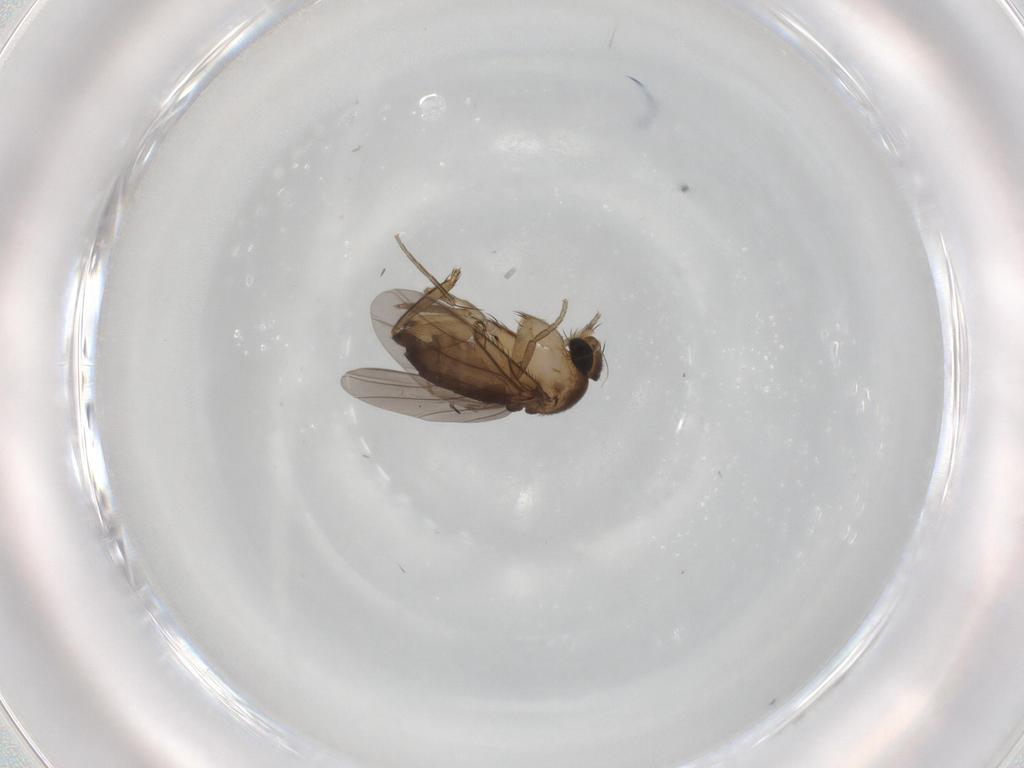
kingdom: Animalia
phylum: Arthropoda
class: Insecta
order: Diptera
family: Phoridae
